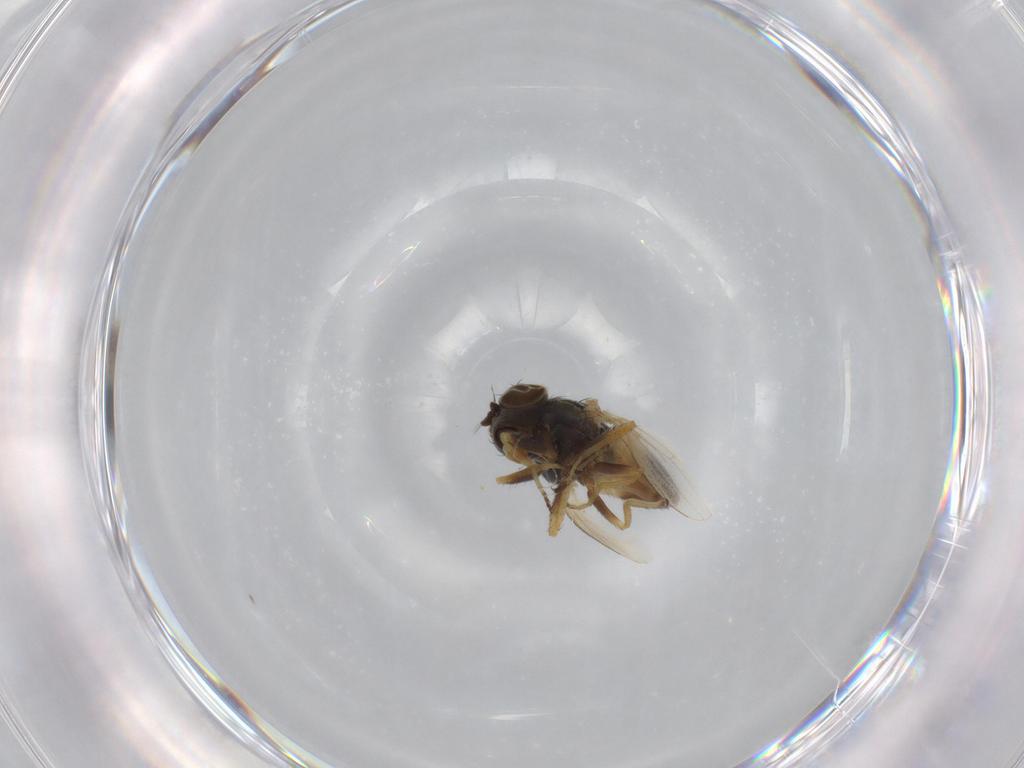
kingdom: Animalia
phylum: Arthropoda
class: Insecta
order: Diptera
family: Ephydridae
